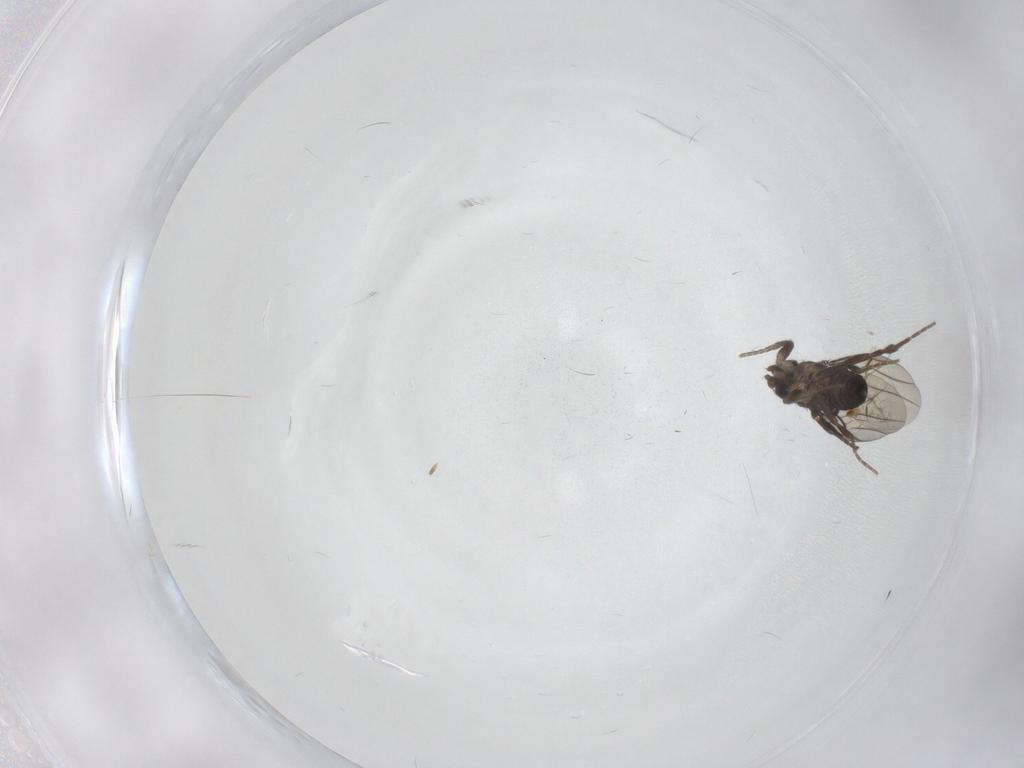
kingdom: Animalia
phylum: Arthropoda
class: Insecta
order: Diptera
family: Phoridae
